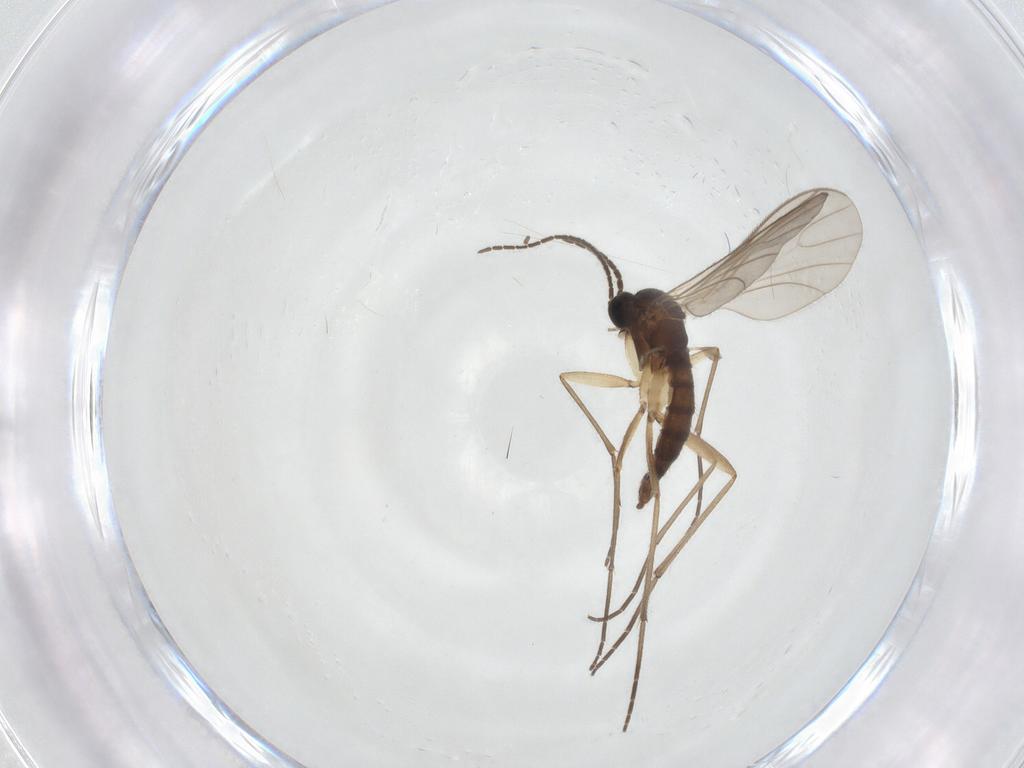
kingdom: Animalia
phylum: Arthropoda
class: Insecta
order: Diptera
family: Sciaridae
